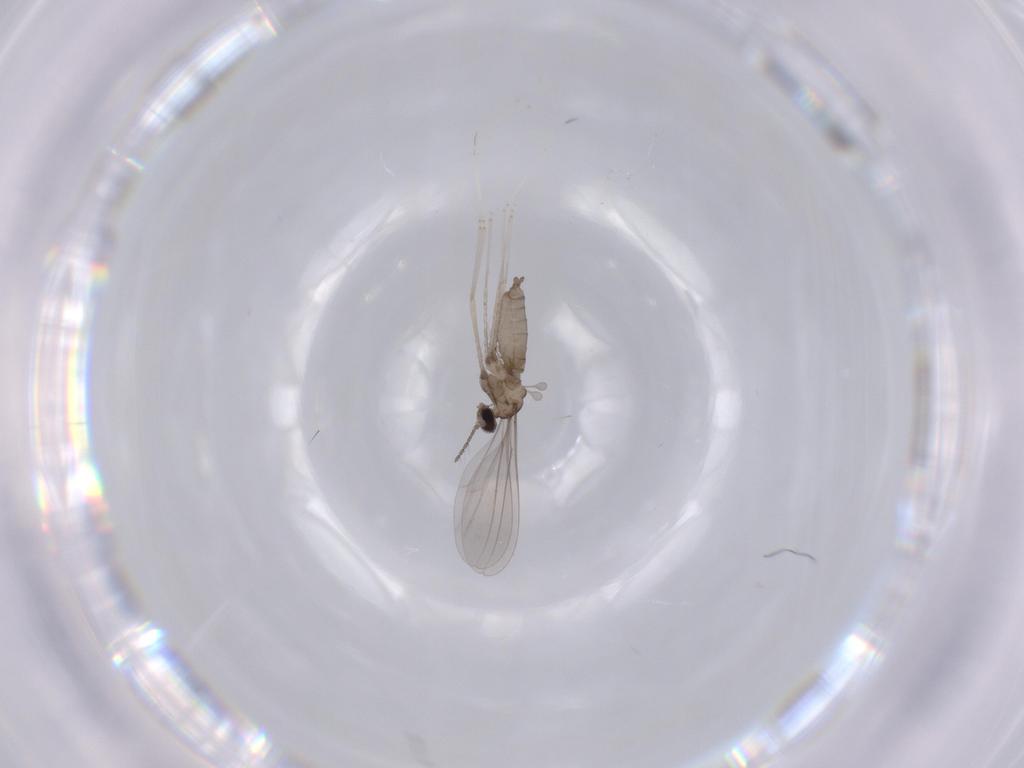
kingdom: Animalia
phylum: Arthropoda
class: Insecta
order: Diptera
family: Cecidomyiidae
